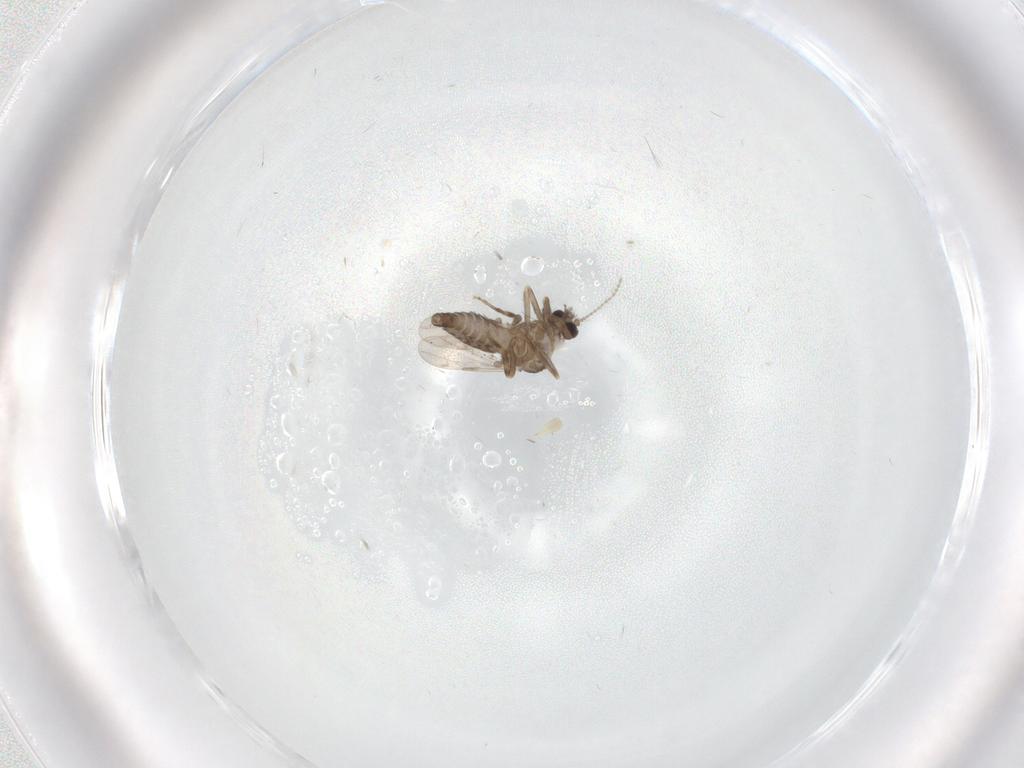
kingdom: Animalia
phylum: Arthropoda
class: Insecta
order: Diptera
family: Ceratopogonidae
